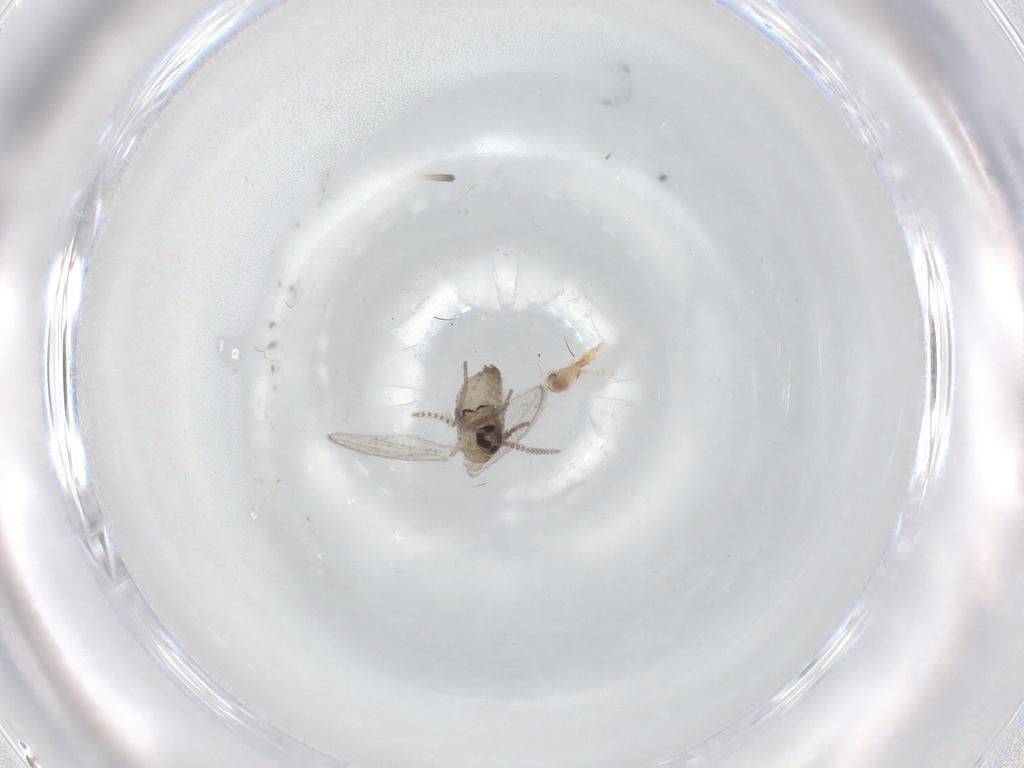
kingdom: Animalia
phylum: Arthropoda
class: Insecta
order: Diptera
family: Psychodidae
